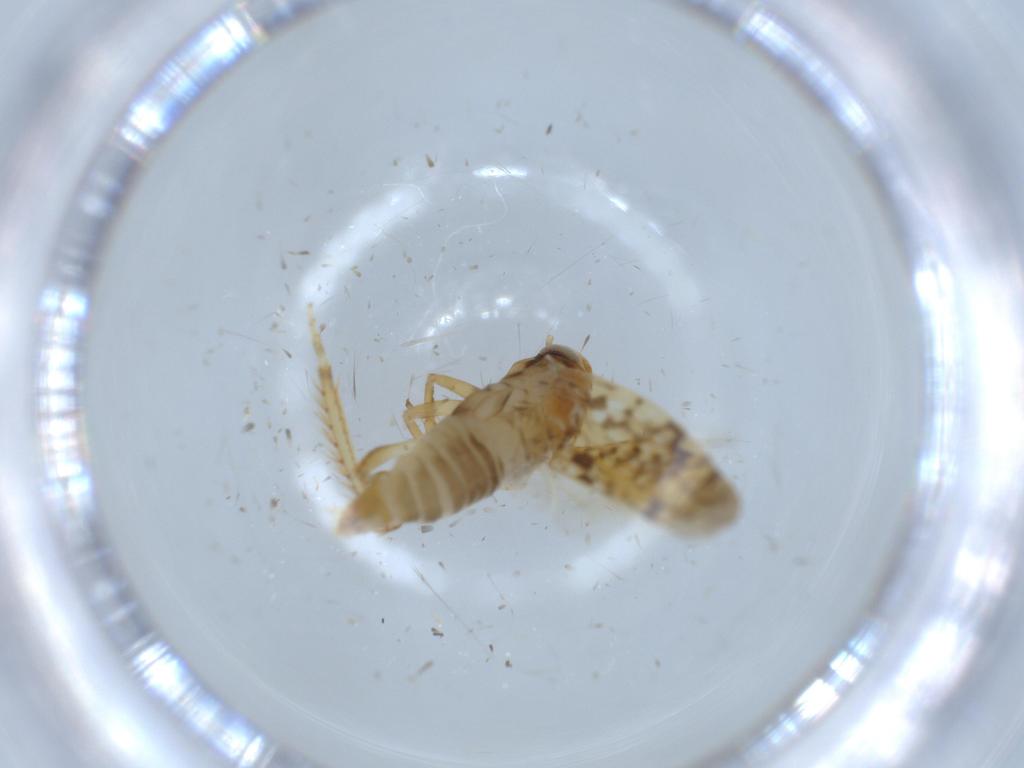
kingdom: Animalia
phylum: Arthropoda
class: Insecta
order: Hemiptera
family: Cicadellidae
